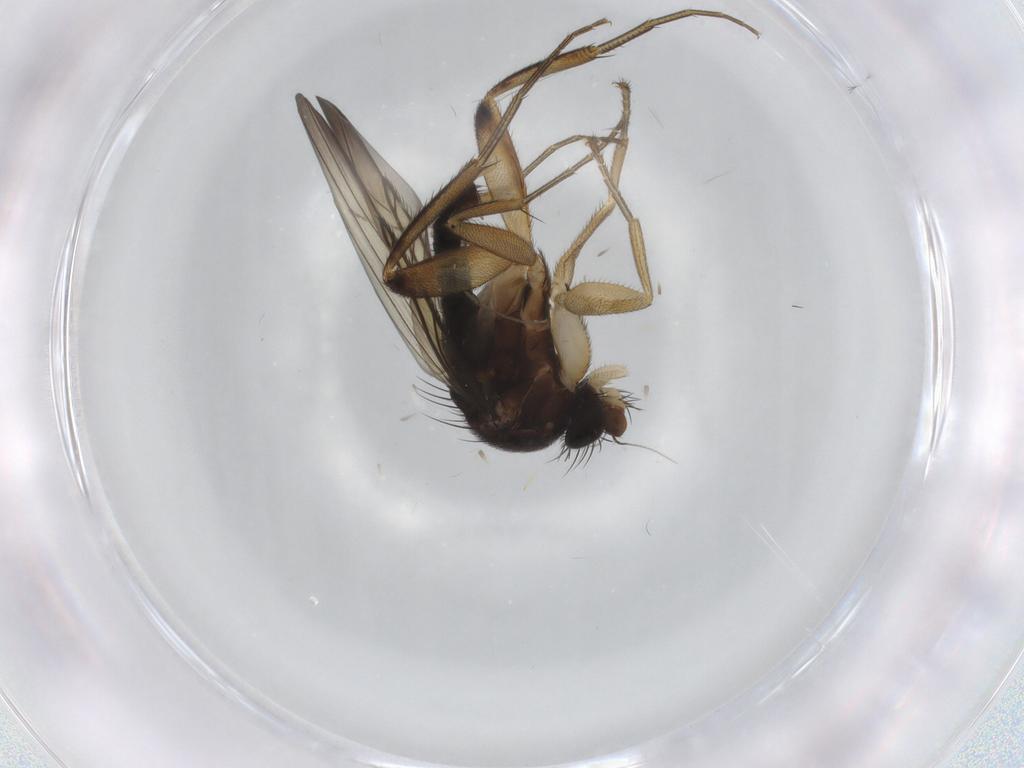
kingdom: Animalia
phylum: Arthropoda
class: Insecta
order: Diptera
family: Phoridae
